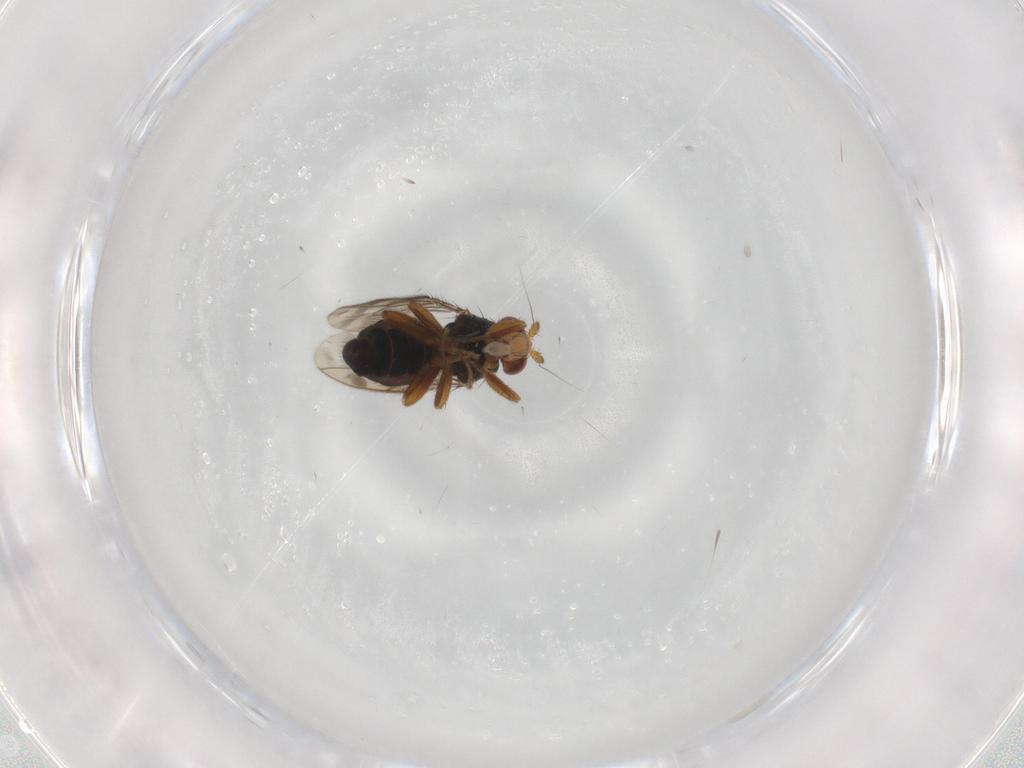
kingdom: Animalia
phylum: Arthropoda
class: Insecta
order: Diptera
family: Sphaeroceridae
